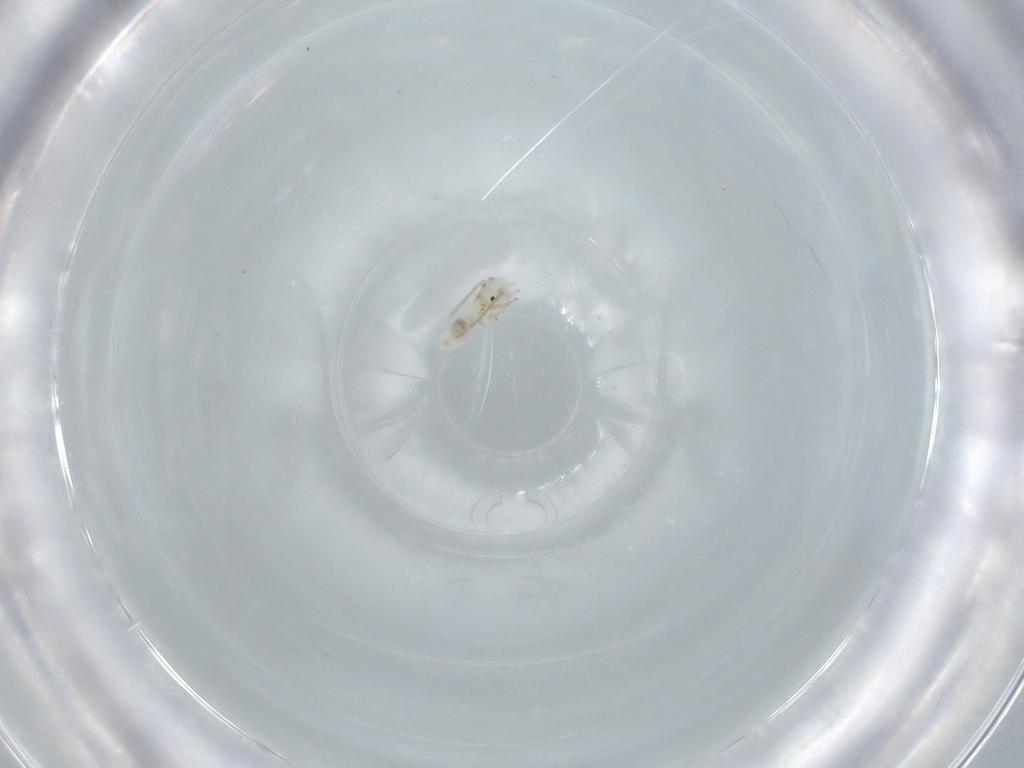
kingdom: Animalia
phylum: Arthropoda
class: Insecta
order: Psocodea
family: Caeciliusidae
